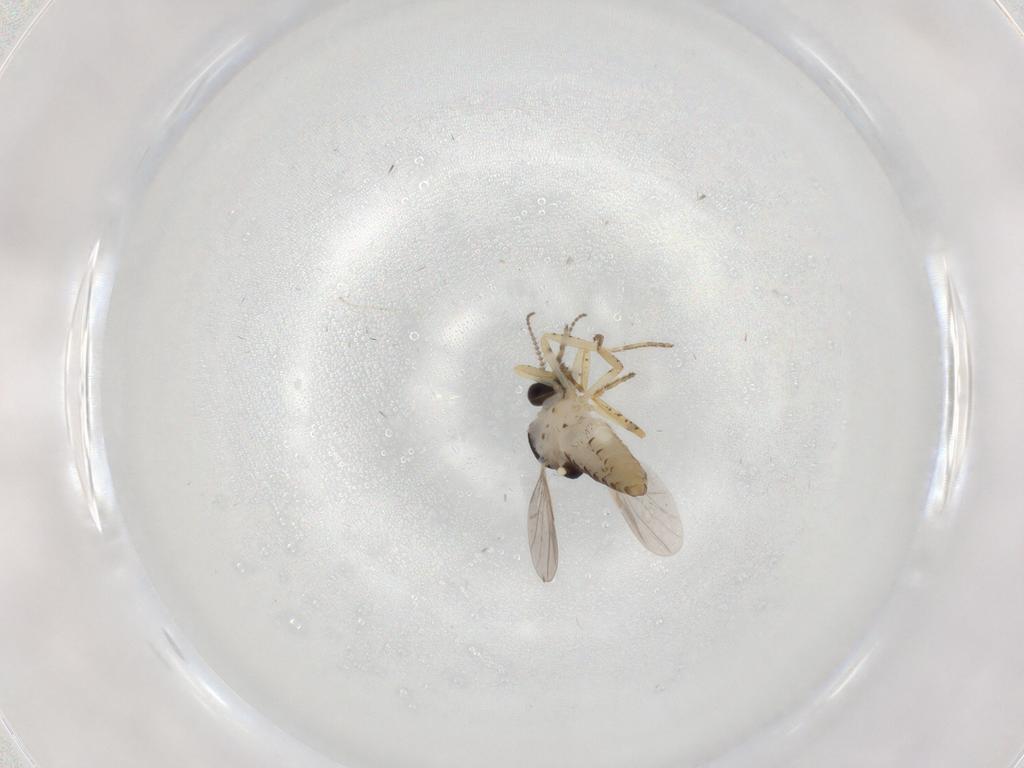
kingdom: Animalia
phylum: Arthropoda
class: Insecta
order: Diptera
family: Ceratopogonidae
